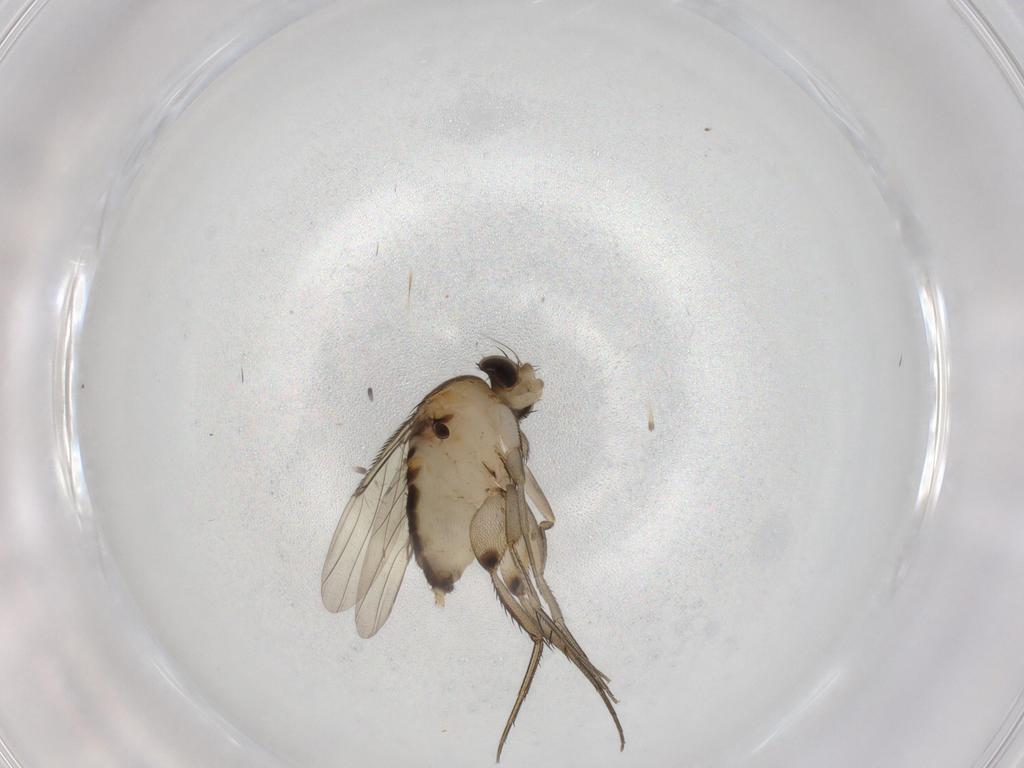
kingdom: Animalia
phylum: Arthropoda
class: Insecta
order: Diptera
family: Phoridae
